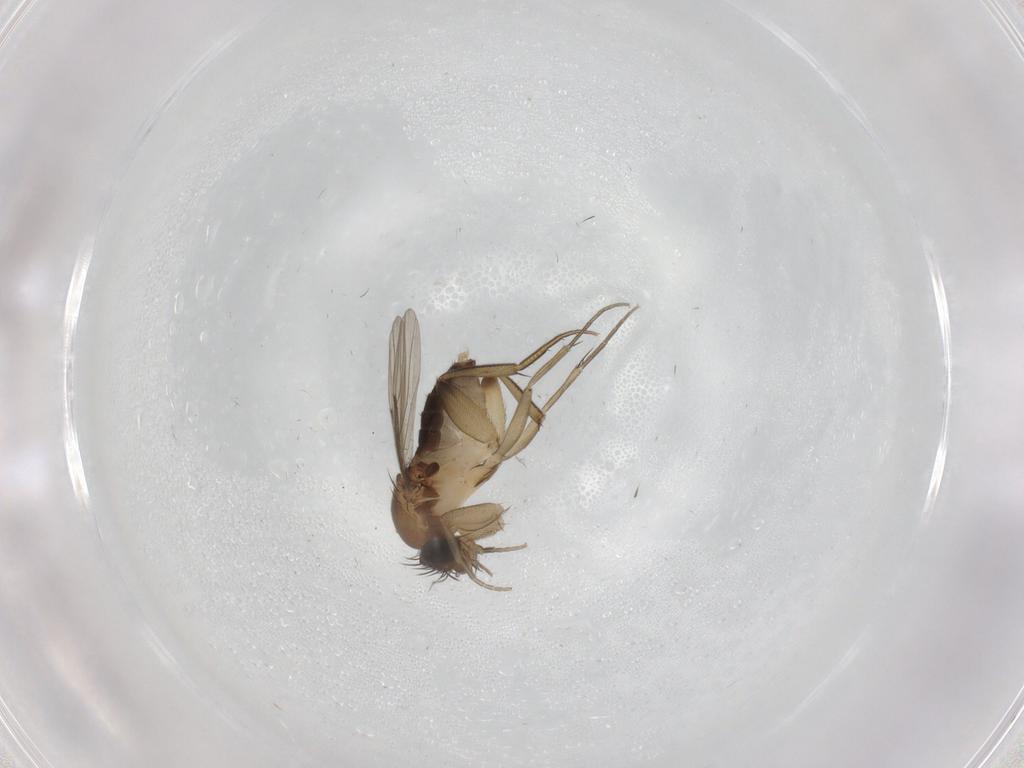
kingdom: Animalia
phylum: Arthropoda
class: Insecta
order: Diptera
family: Phoridae
